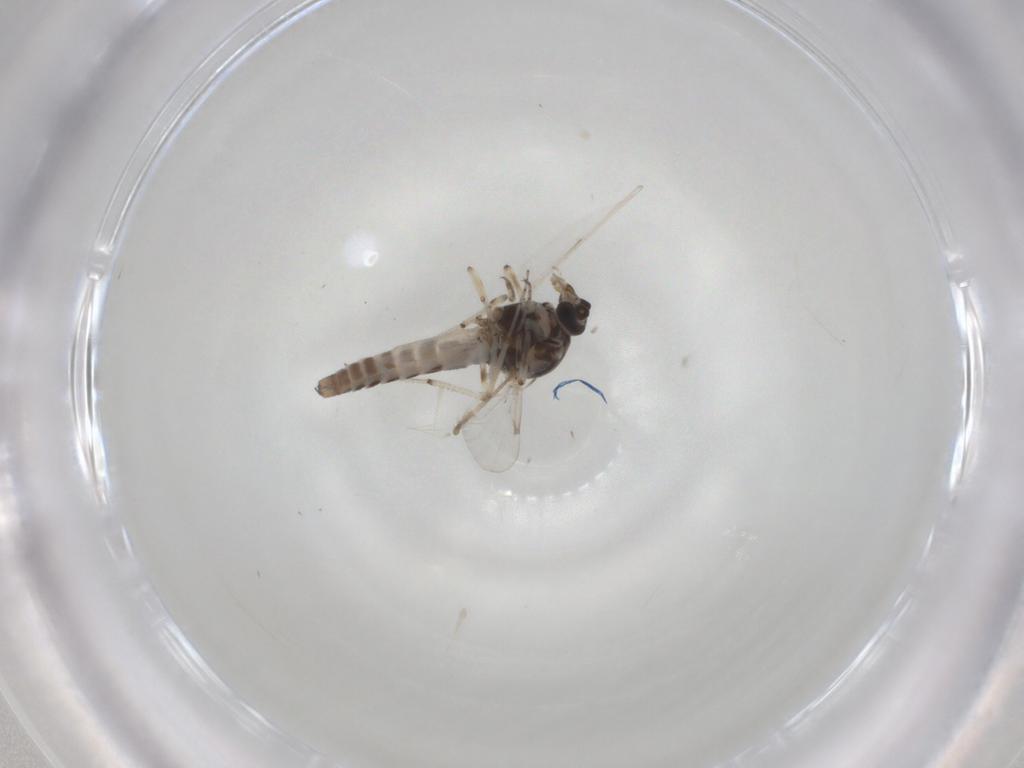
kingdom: Animalia
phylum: Arthropoda
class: Insecta
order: Diptera
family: Ceratopogonidae
